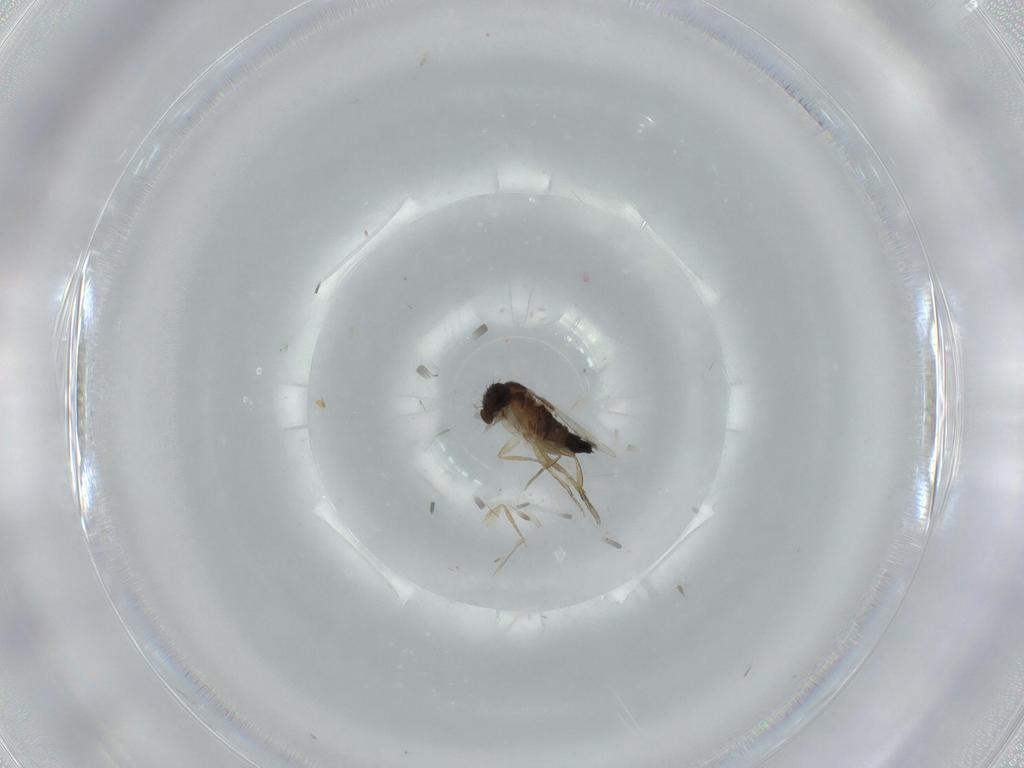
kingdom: Animalia
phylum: Arthropoda
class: Insecta
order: Diptera
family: Phoridae
